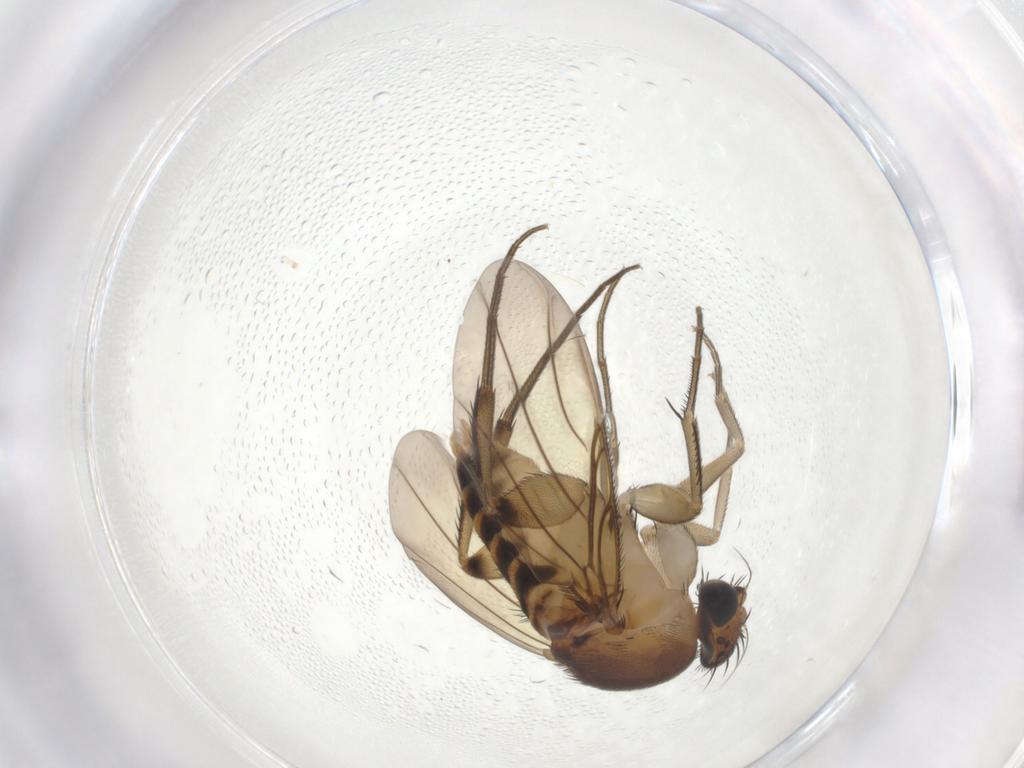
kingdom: Animalia
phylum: Arthropoda
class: Insecta
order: Diptera
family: Phoridae
